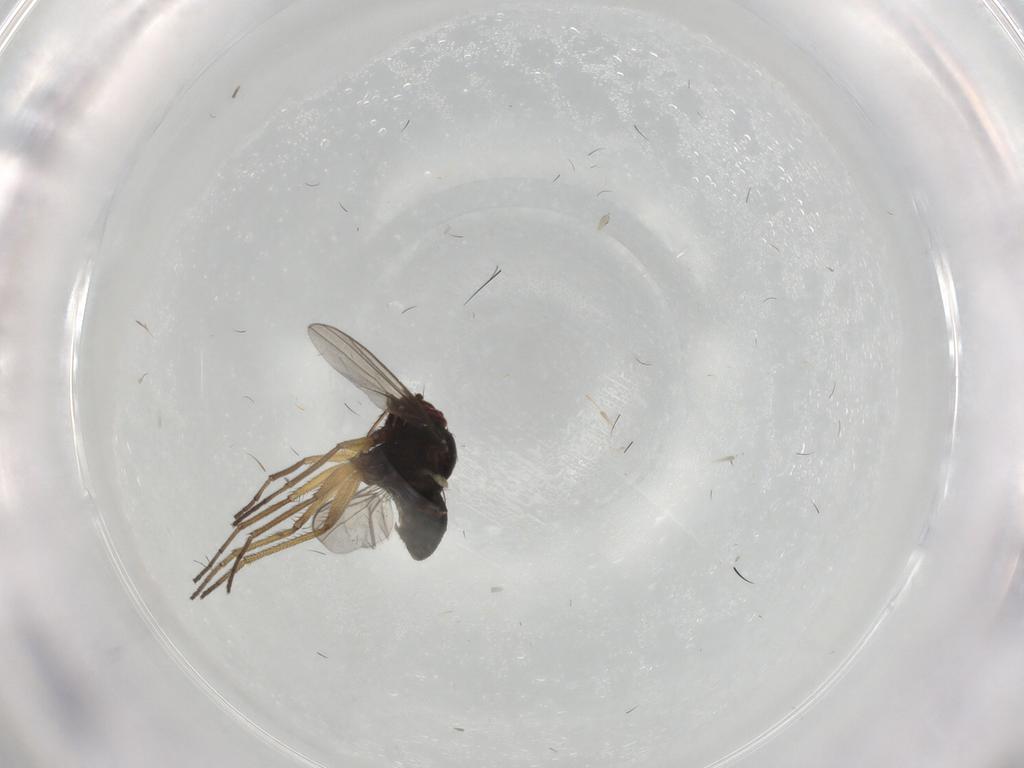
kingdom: Animalia
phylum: Arthropoda
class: Insecta
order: Diptera
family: Dolichopodidae
